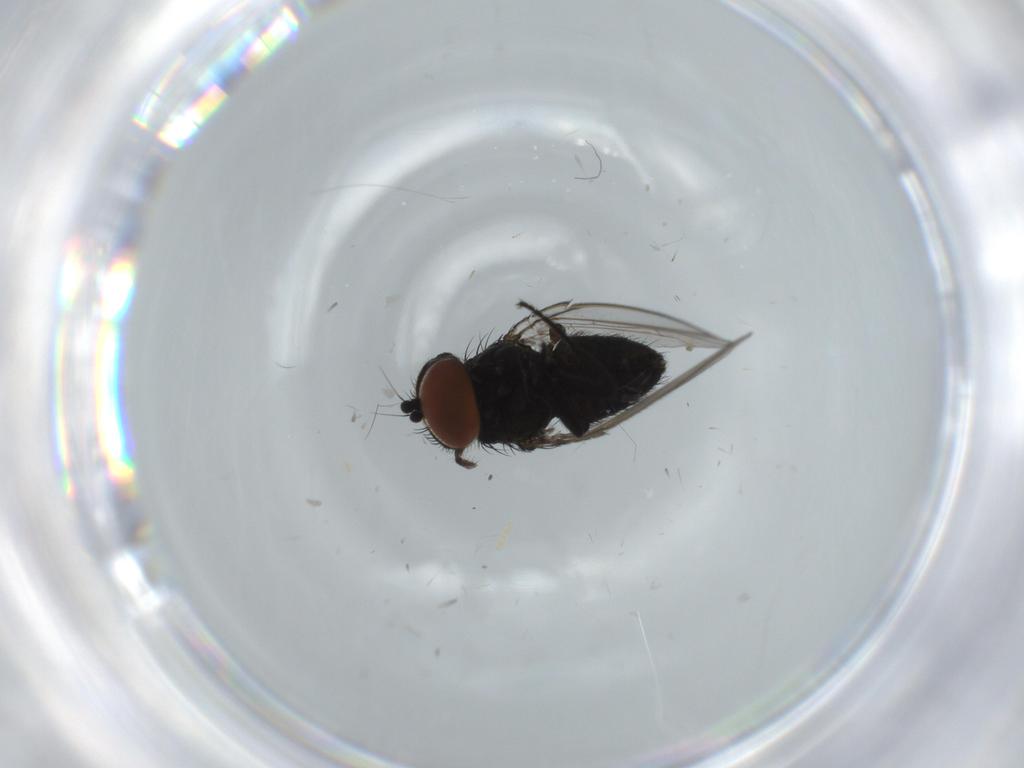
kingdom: Animalia
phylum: Arthropoda
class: Insecta
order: Diptera
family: Milichiidae
